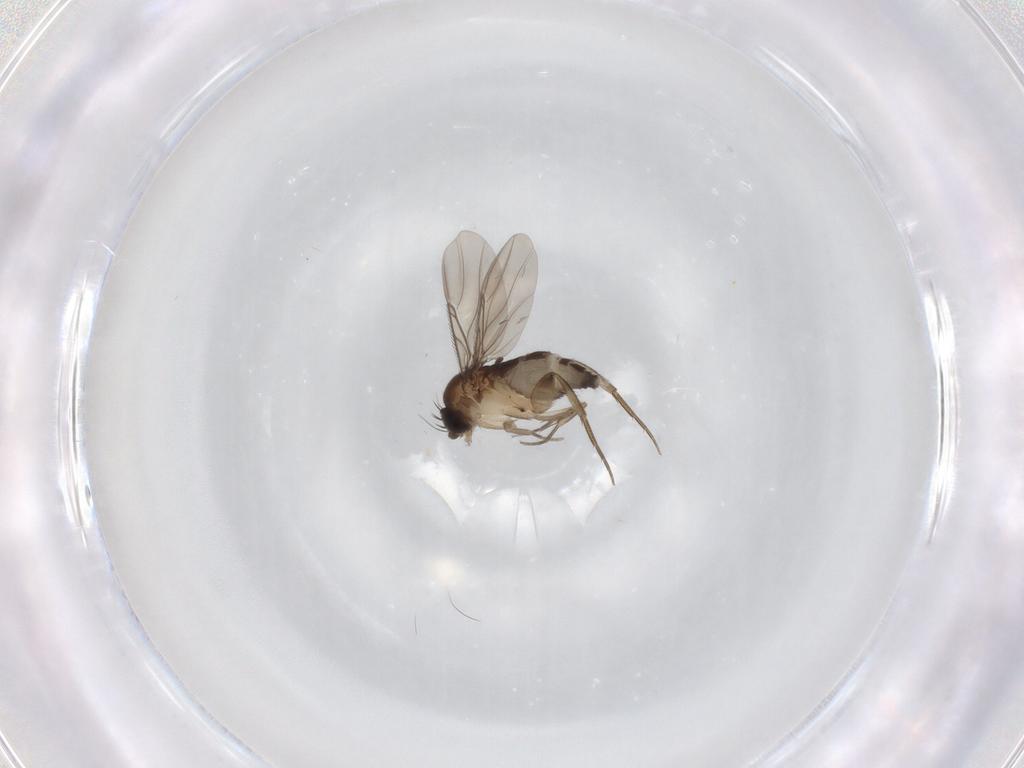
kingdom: Animalia
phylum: Arthropoda
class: Insecta
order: Diptera
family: Phoridae
